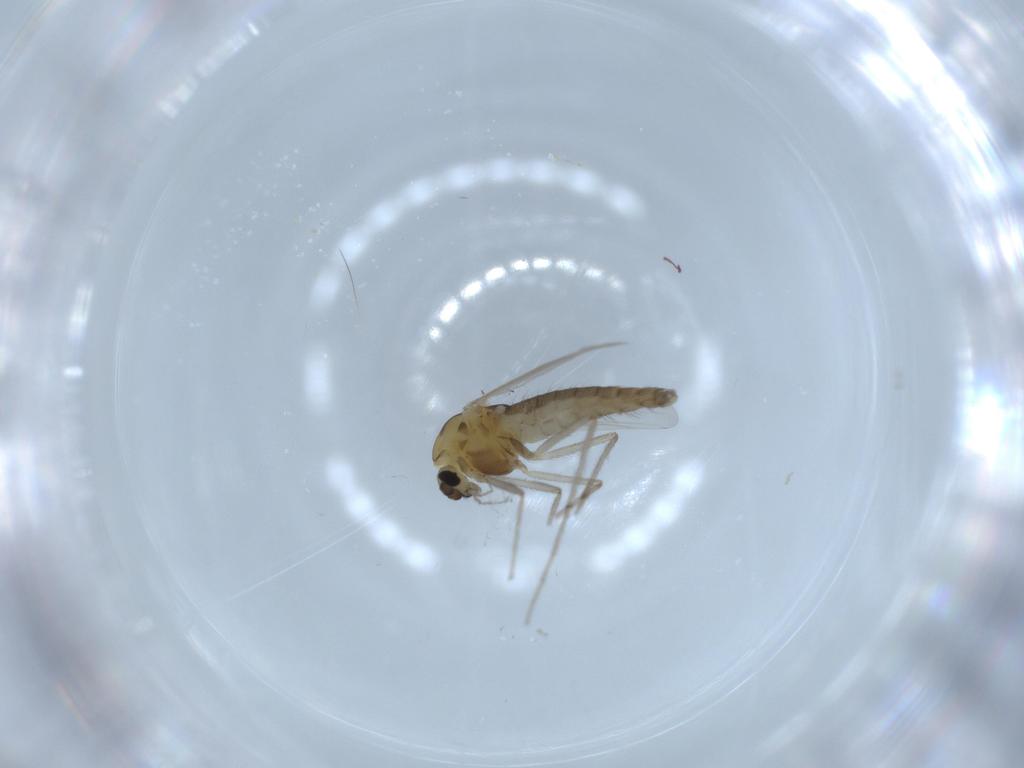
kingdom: Animalia
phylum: Arthropoda
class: Insecta
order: Diptera
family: Chironomidae
